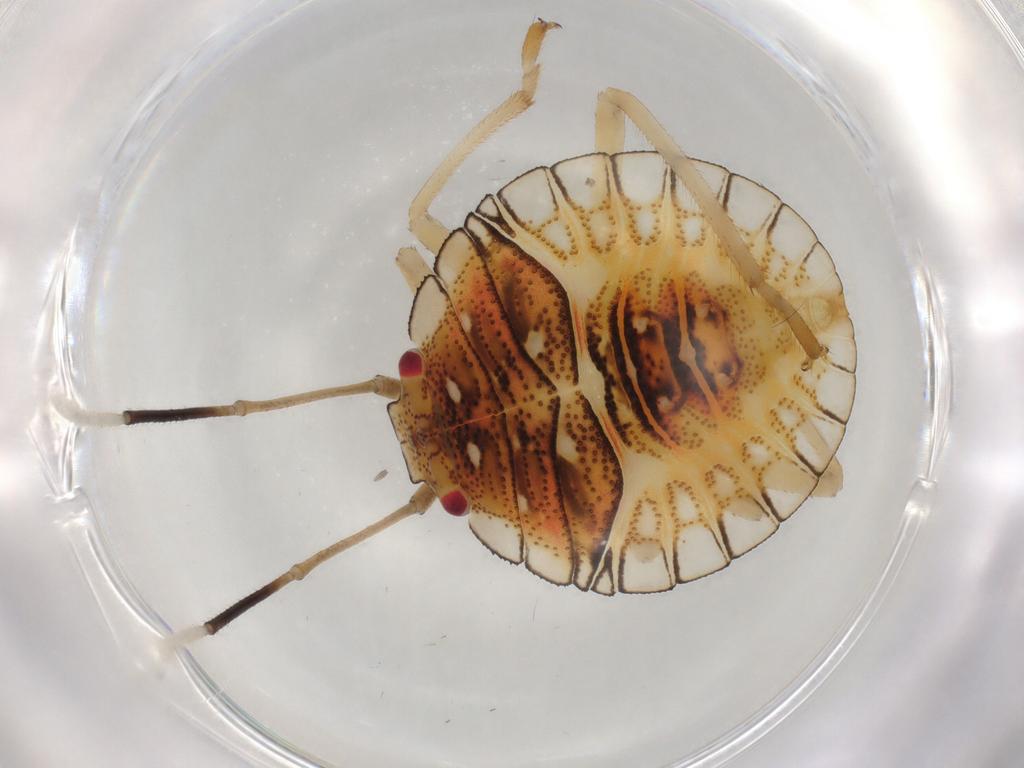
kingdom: Animalia
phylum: Arthropoda
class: Insecta
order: Hemiptera
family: Pentatomidae
